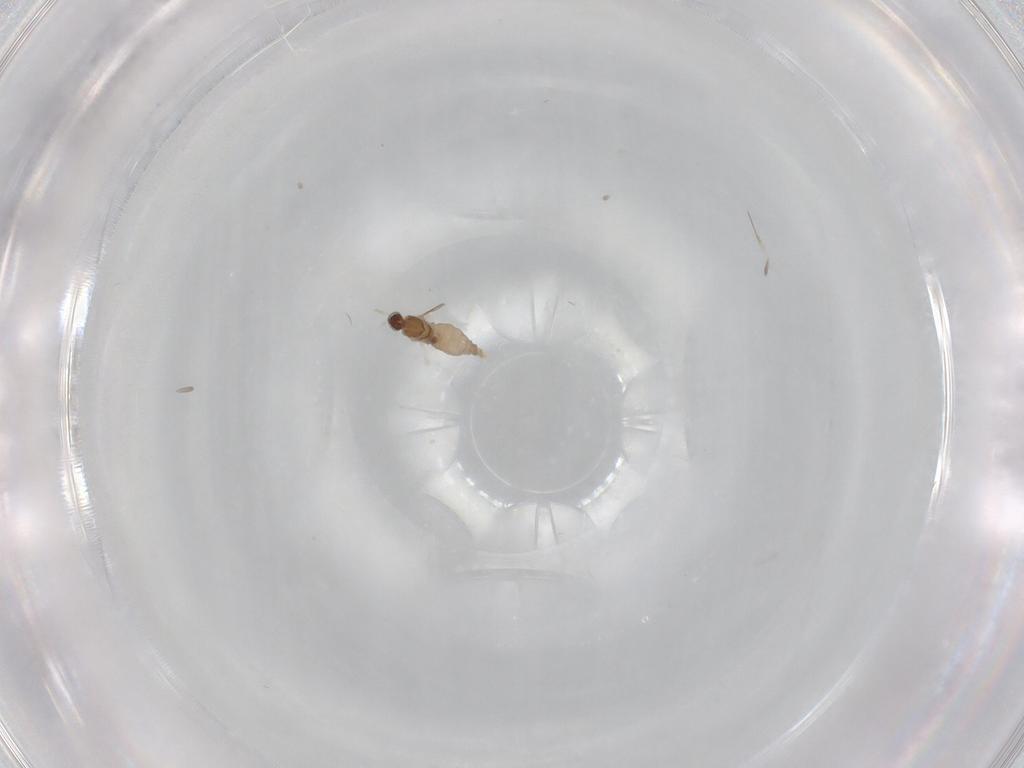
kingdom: Animalia
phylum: Arthropoda
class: Insecta
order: Diptera
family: Cecidomyiidae
